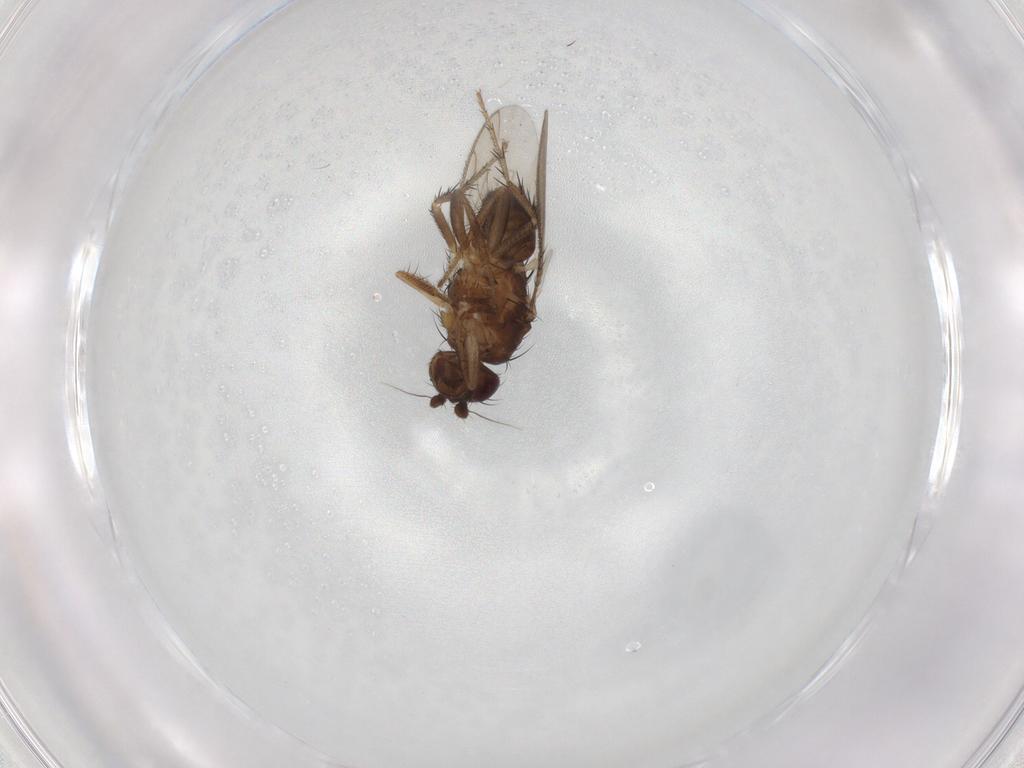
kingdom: Animalia
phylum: Arthropoda
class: Insecta
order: Diptera
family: Sphaeroceridae
